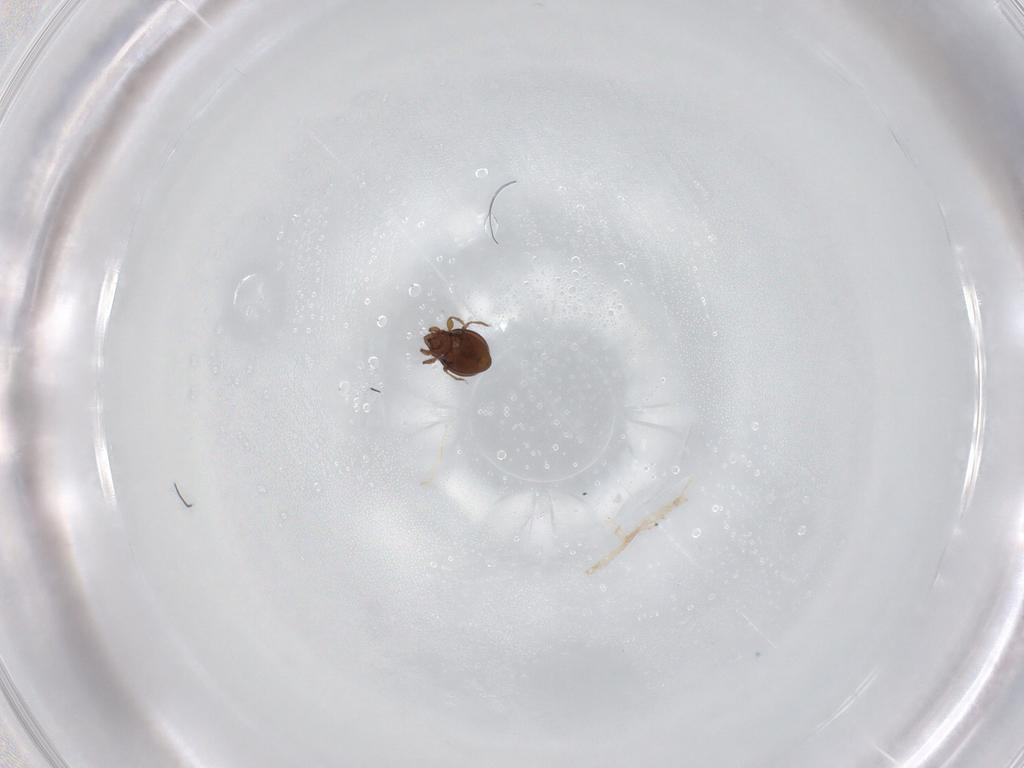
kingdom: Animalia
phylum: Arthropoda
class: Arachnida
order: Sarcoptiformes
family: Oribatulidae
